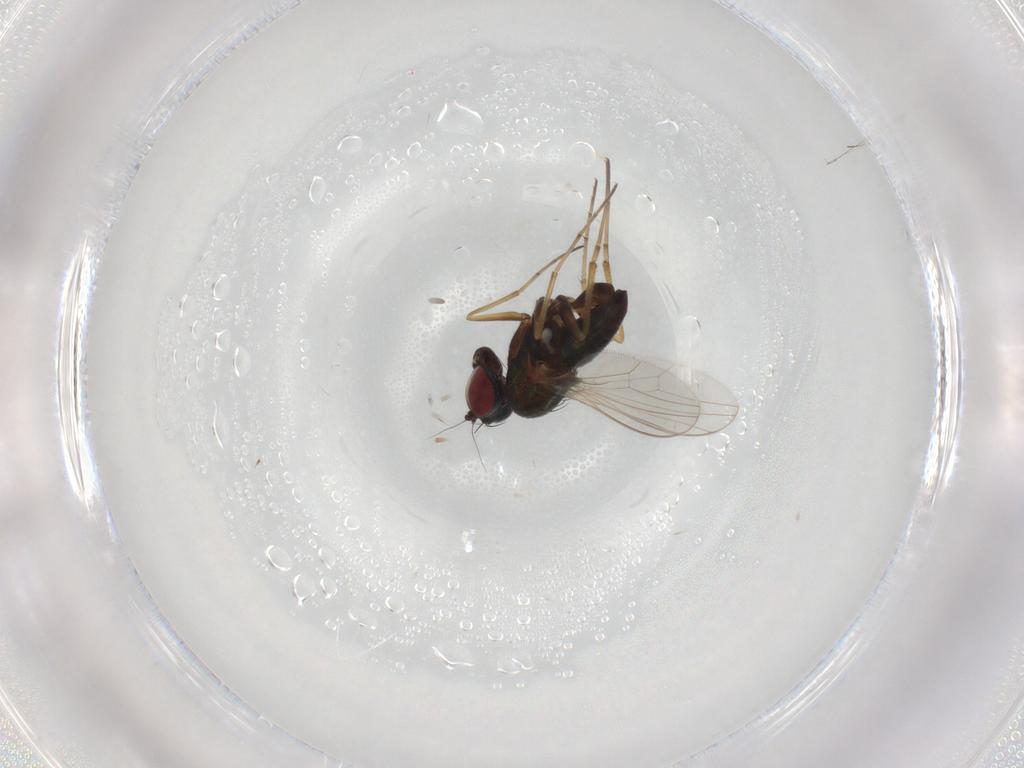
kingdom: Animalia
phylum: Arthropoda
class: Insecta
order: Diptera
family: Dolichopodidae
